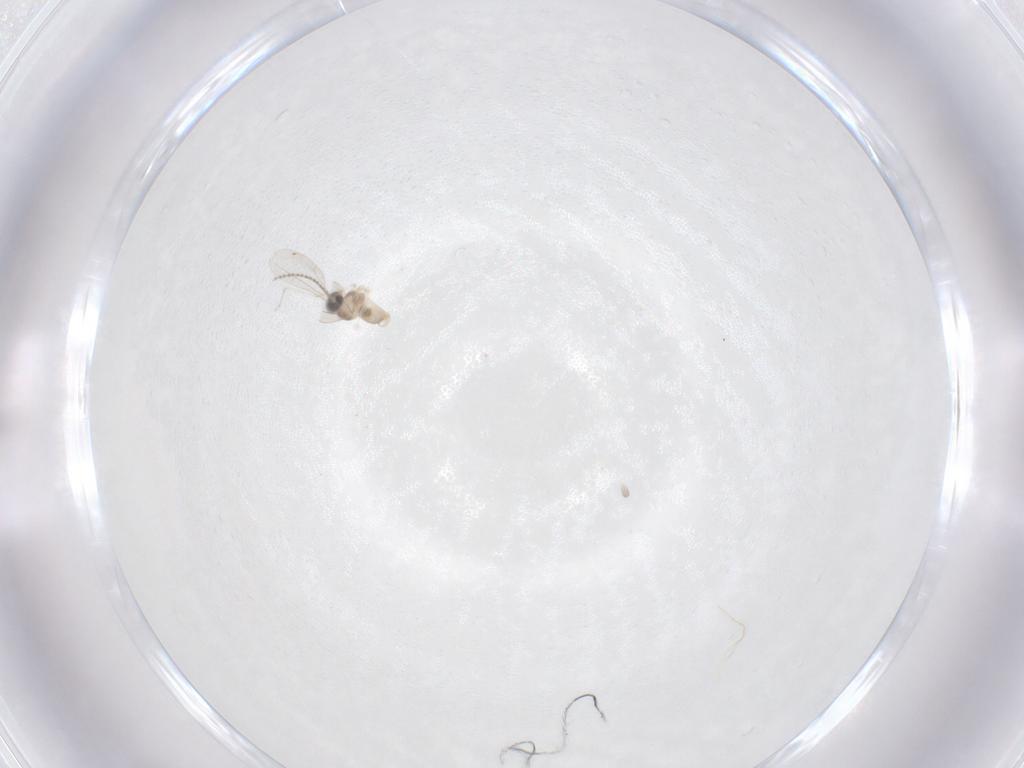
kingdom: Animalia
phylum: Arthropoda
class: Insecta
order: Diptera
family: Cecidomyiidae
